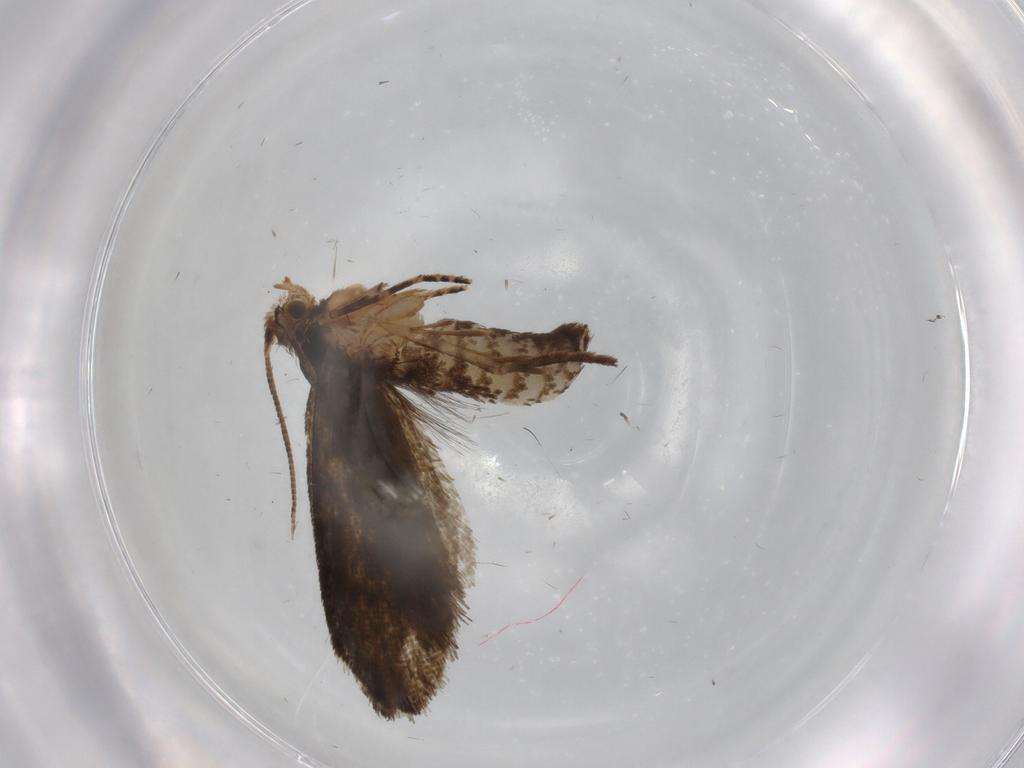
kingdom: Animalia
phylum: Arthropoda
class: Insecta
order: Lepidoptera
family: Crambidae
